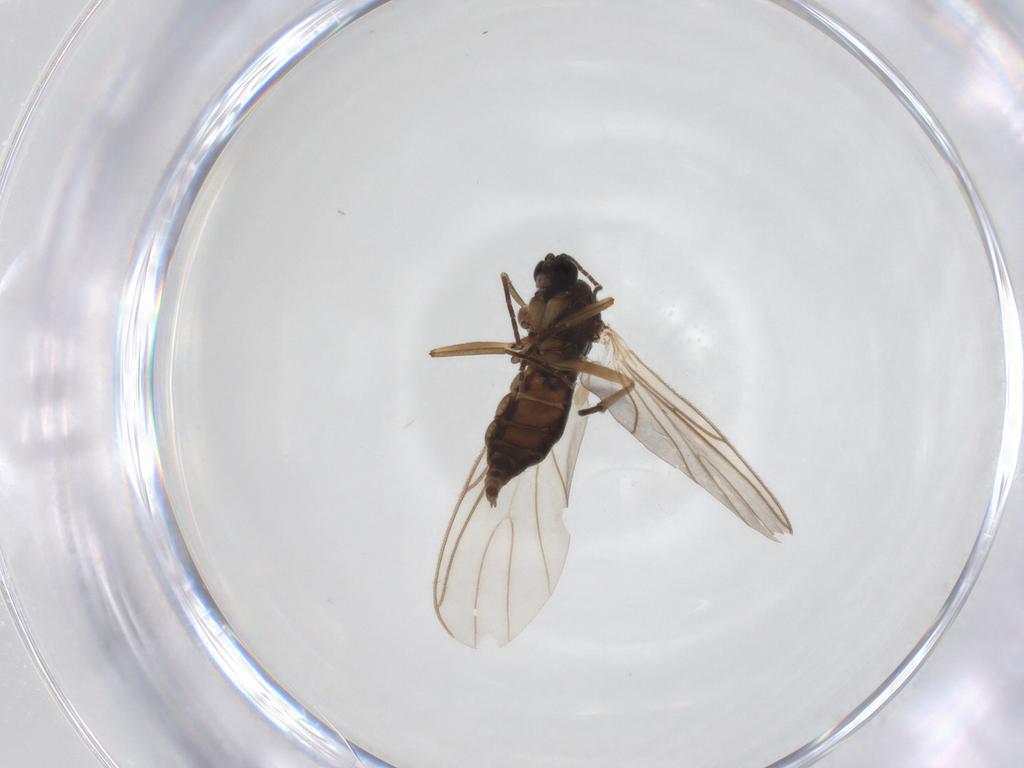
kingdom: Animalia
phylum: Arthropoda
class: Insecta
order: Diptera
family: Sciaridae
